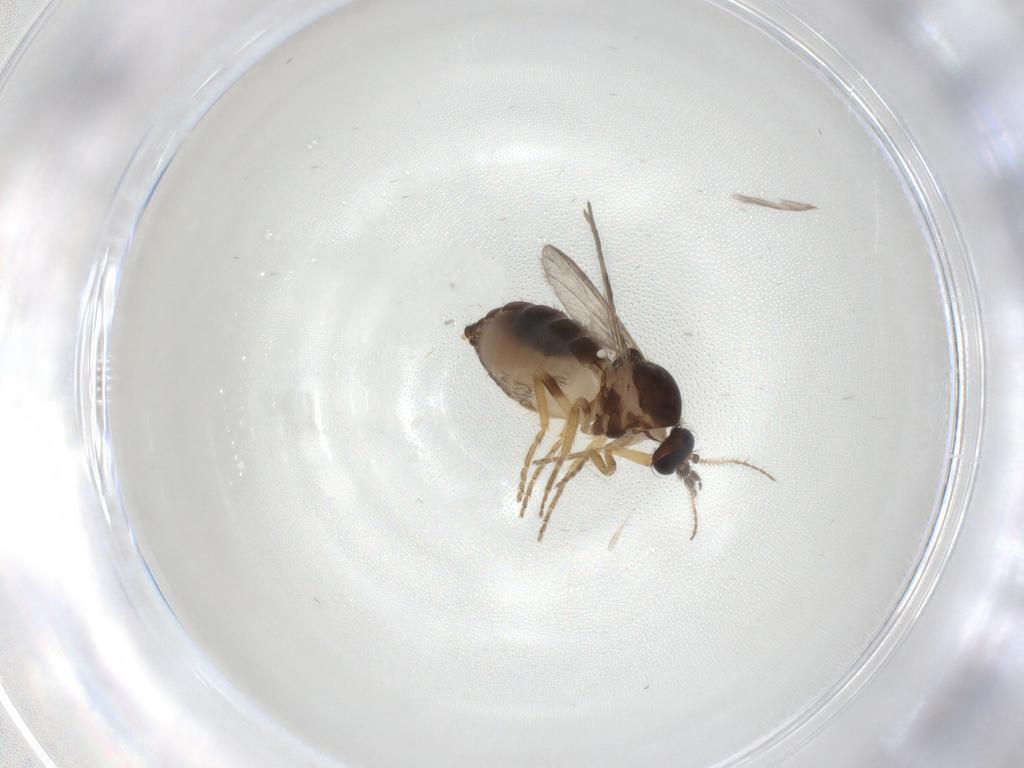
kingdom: Animalia
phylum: Arthropoda
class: Insecta
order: Diptera
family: Ceratopogonidae
